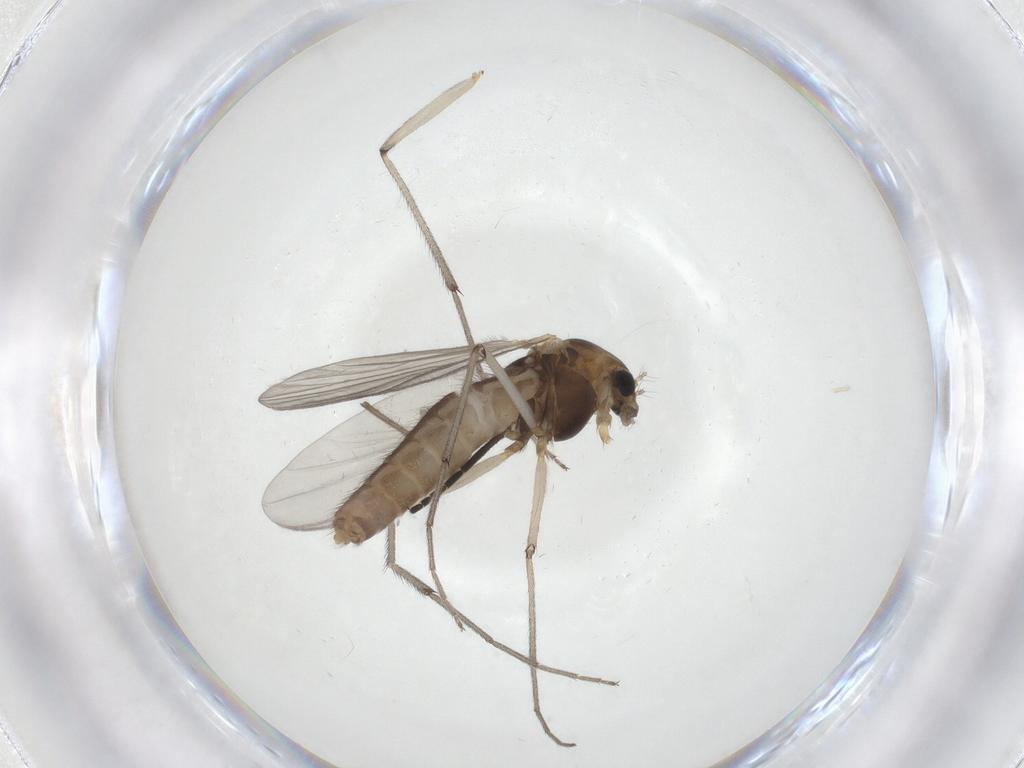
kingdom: Animalia
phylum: Arthropoda
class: Insecta
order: Diptera
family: Chironomidae
